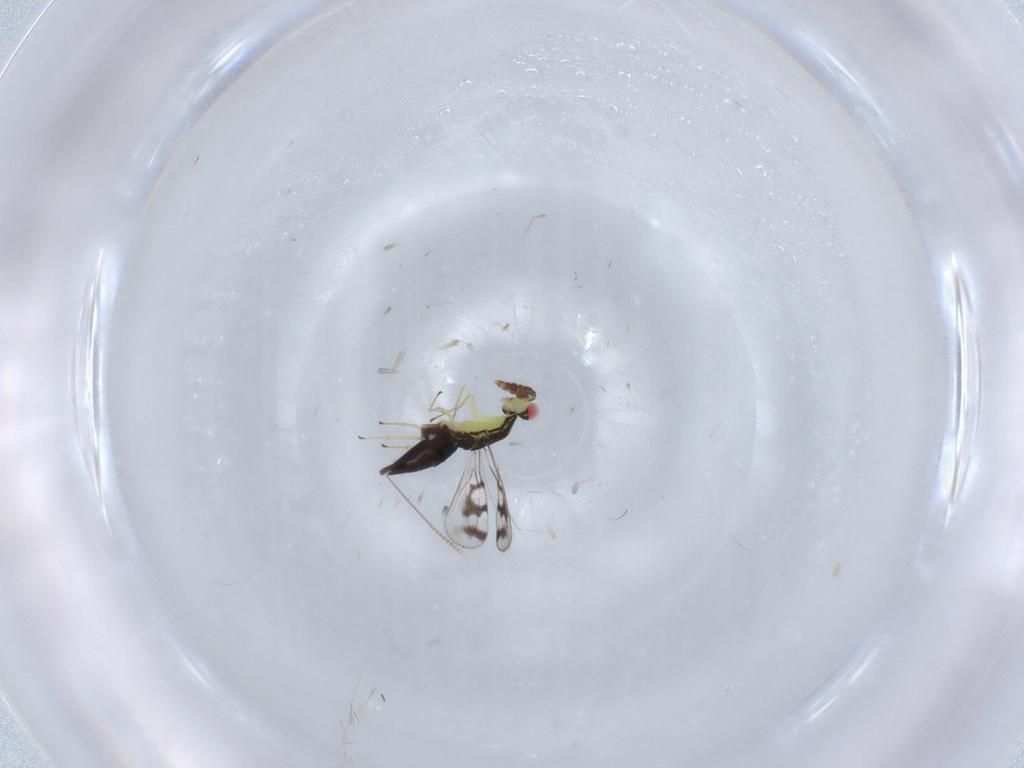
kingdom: Animalia
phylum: Arthropoda
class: Insecta
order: Hymenoptera
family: Eulophidae
